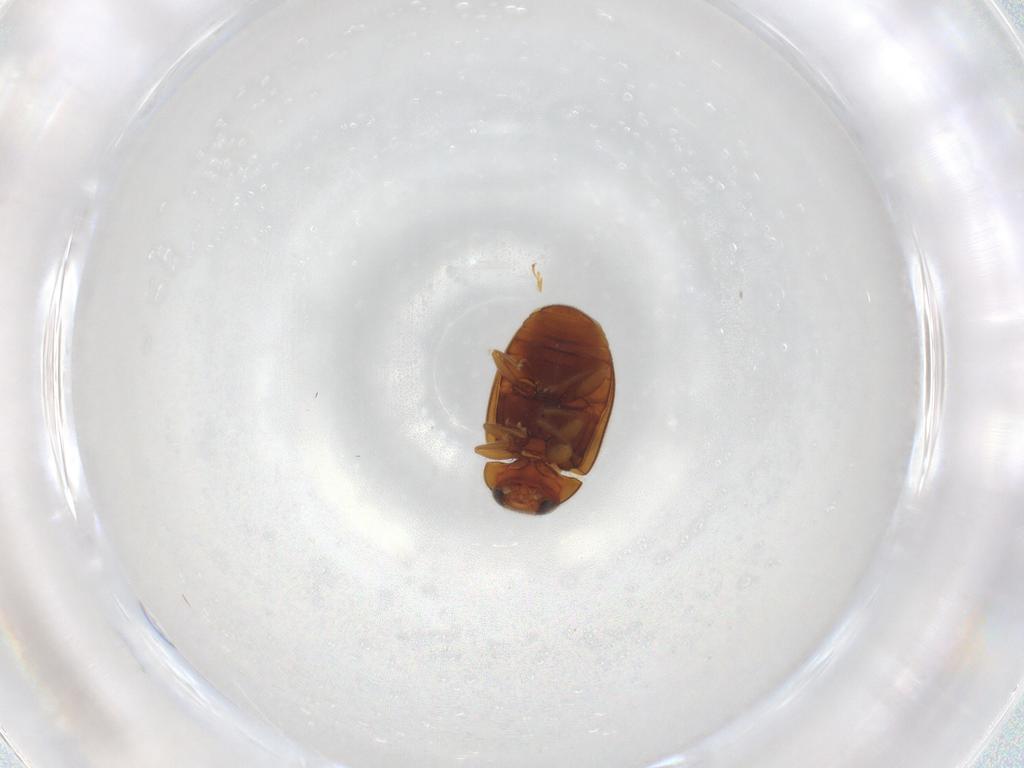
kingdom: Animalia
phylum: Arthropoda
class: Insecta
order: Coleoptera
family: Coccinellidae
